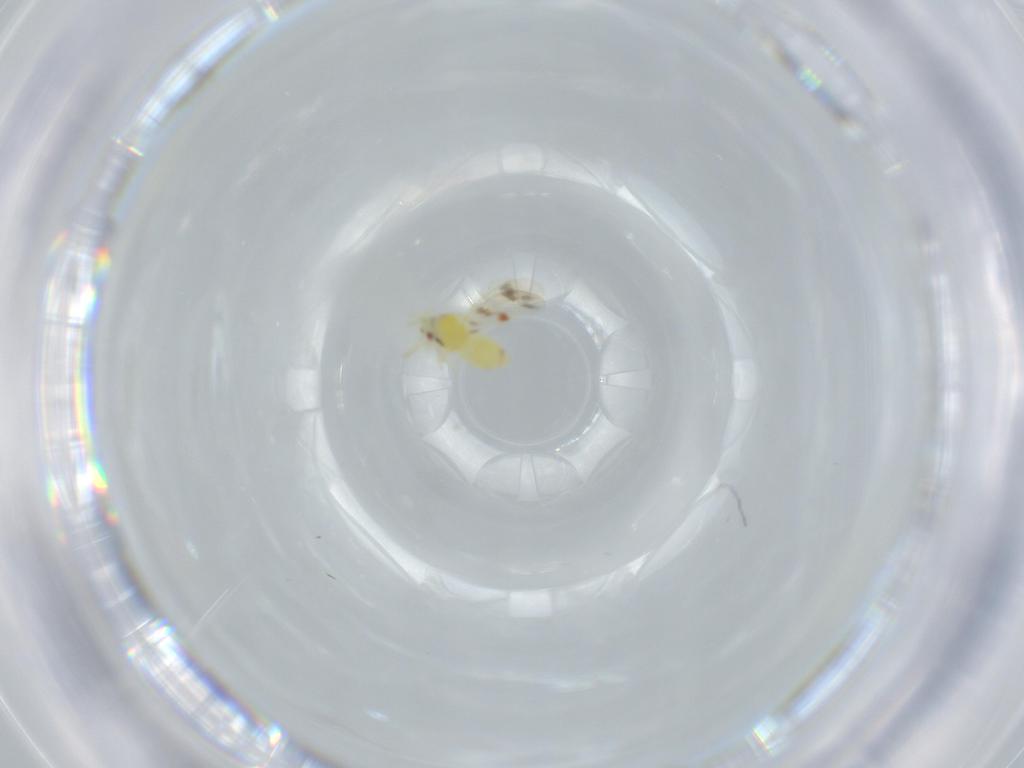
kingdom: Animalia
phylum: Arthropoda
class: Insecta
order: Hemiptera
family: Aleyrodidae
